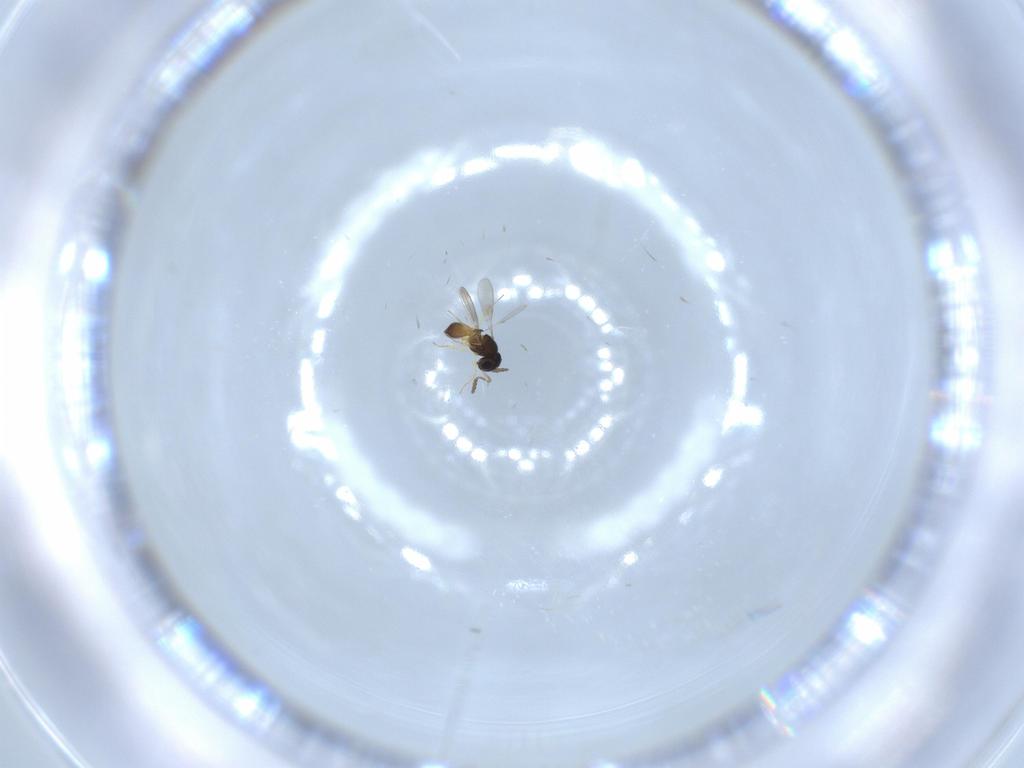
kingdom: Animalia
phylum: Arthropoda
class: Insecta
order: Hymenoptera
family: Scelionidae
